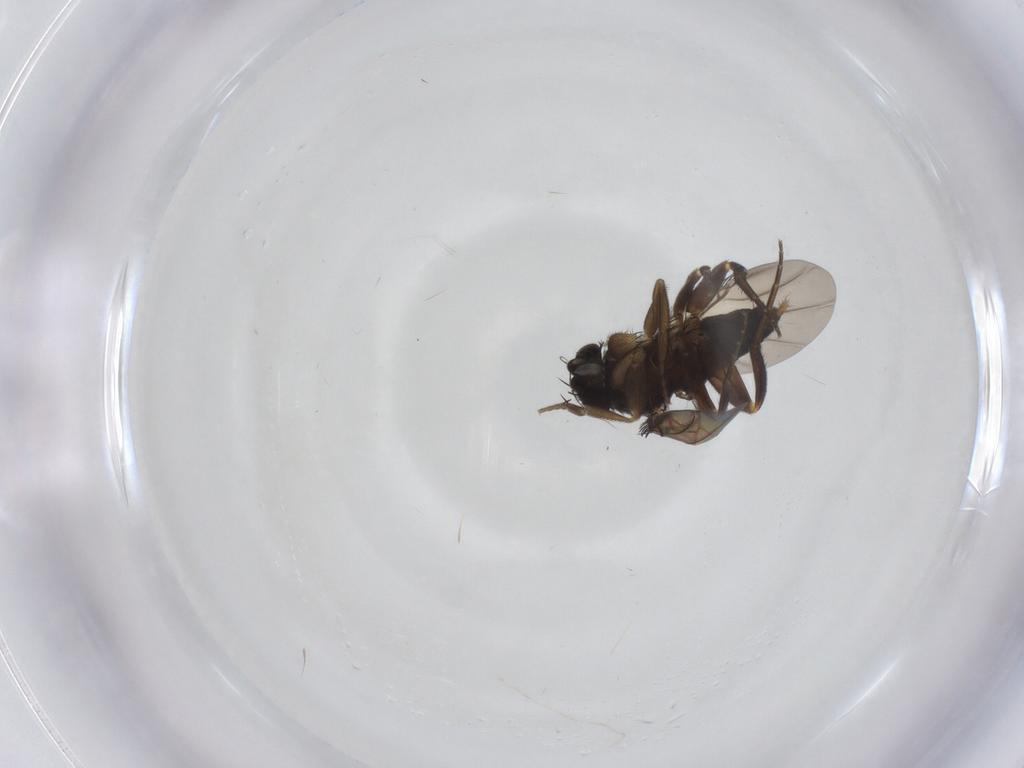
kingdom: Animalia
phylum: Arthropoda
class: Insecta
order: Diptera
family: Phoridae
